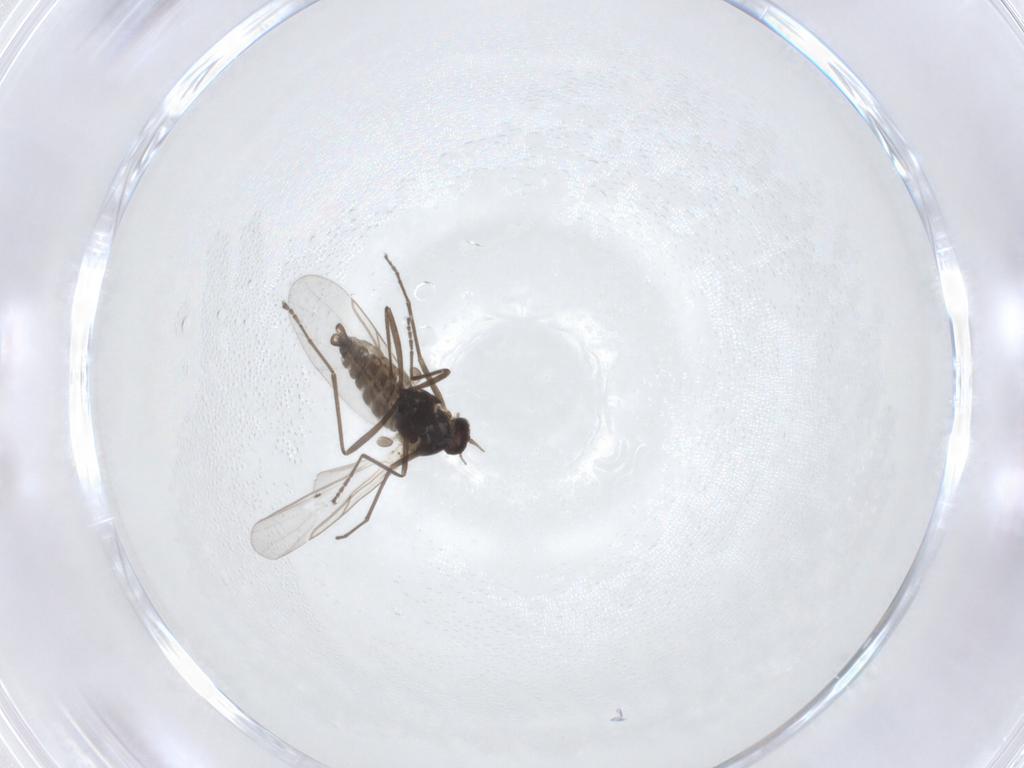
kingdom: Animalia
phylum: Arthropoda
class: Insecta
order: Diptera
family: Cecidomyiidae
